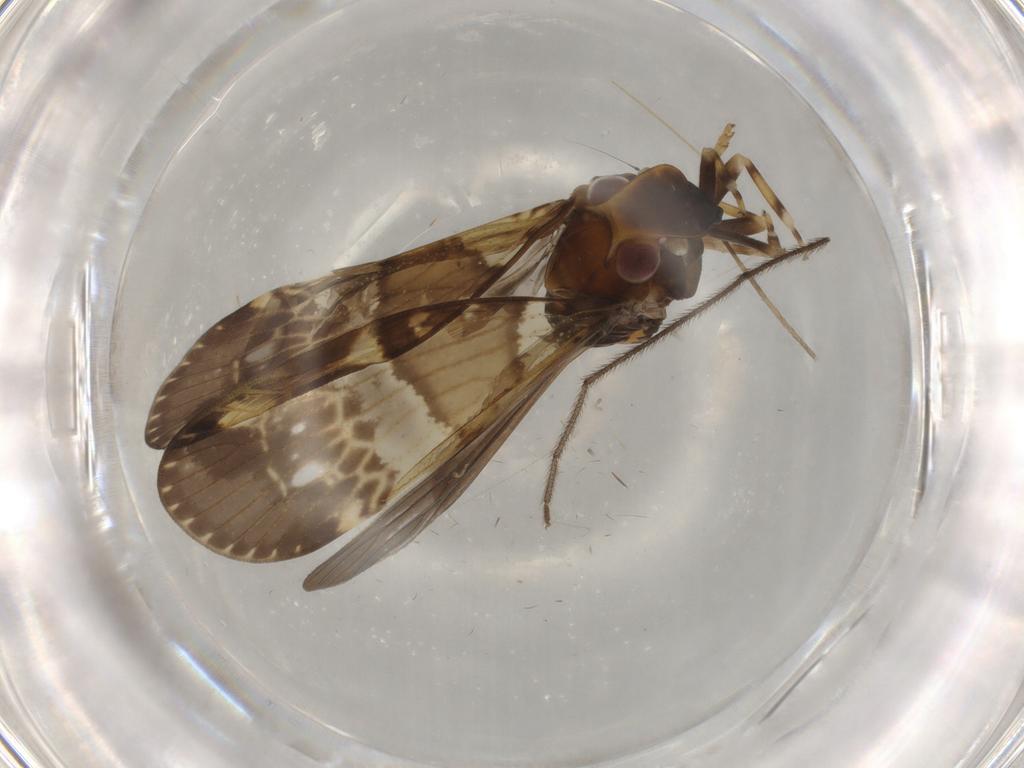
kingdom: Animalia
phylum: Arthropoda
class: Insecta
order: Hemiptera
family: Cixiidae
